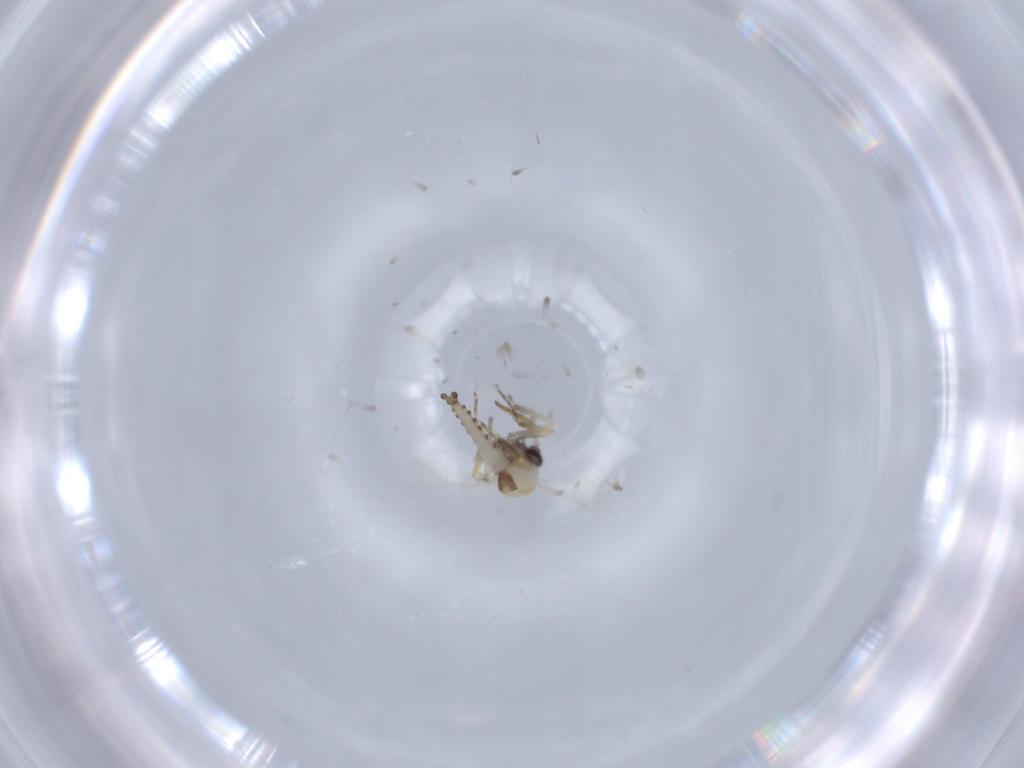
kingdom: Animalia
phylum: Arthropoda
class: Insecta
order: Diptera
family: Ceratopogonidae
